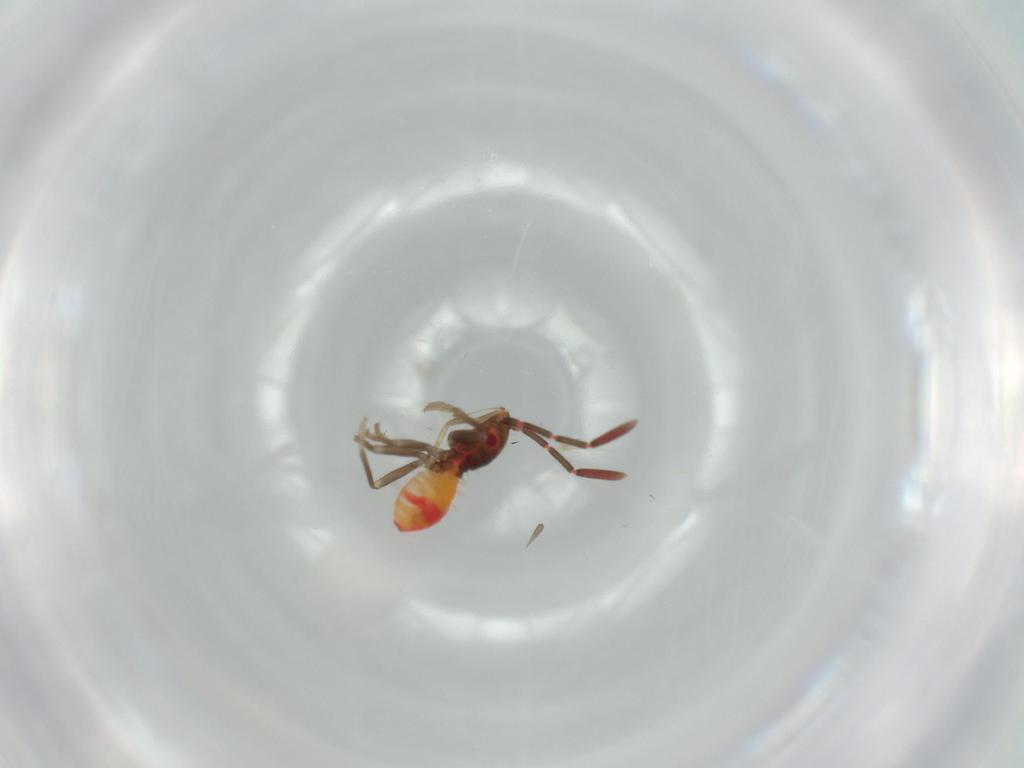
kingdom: Animalia
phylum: Arthropoda
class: Insecta
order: Hemiptera
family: Rhyparochromidae
